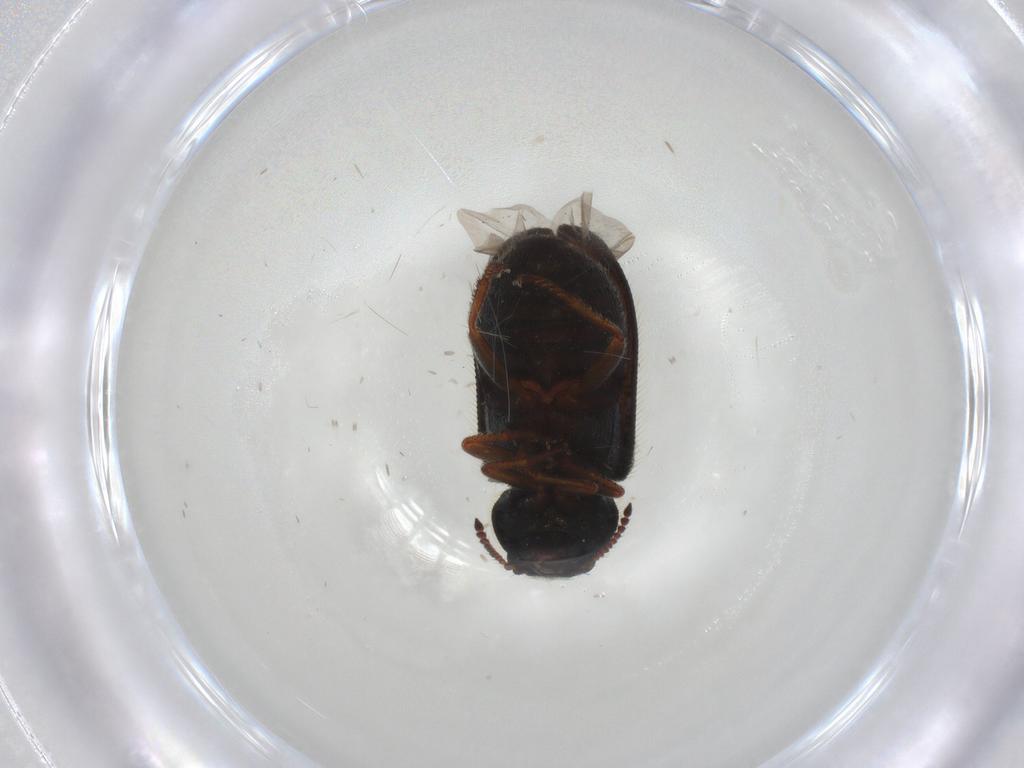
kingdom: Animalia
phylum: Arthropoda
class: Insecta
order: Coleoptera
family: Melyridae
